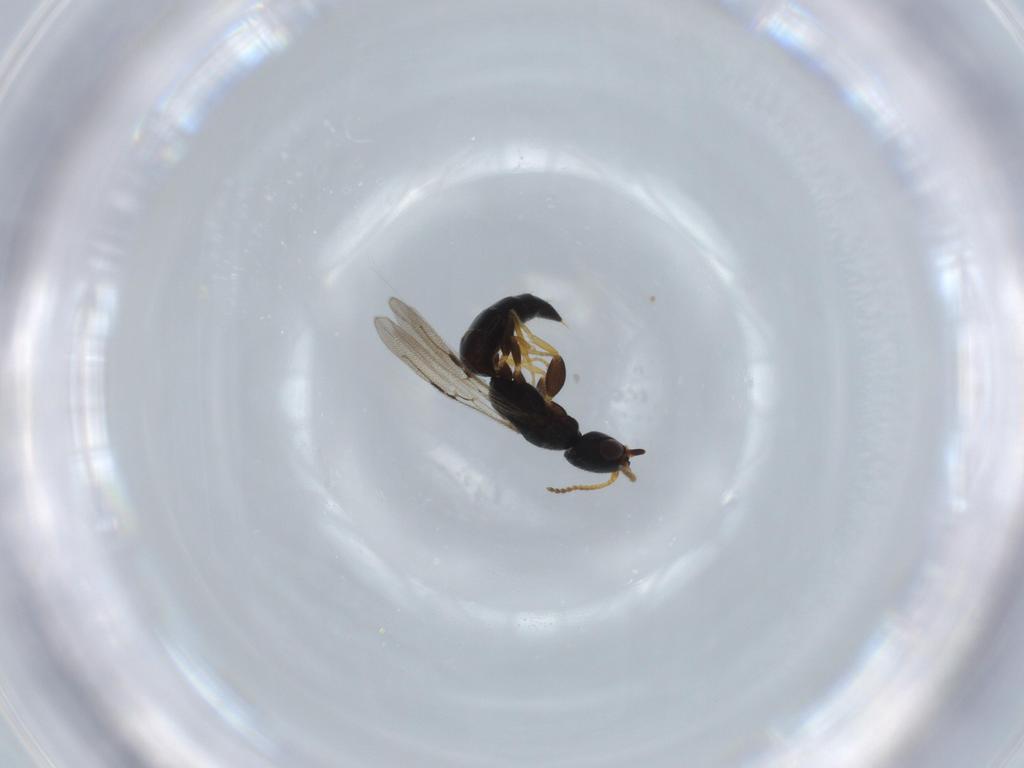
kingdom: Animalia
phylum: Arthropoda
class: Insecta
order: Hymenoptera
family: Bethylidae
